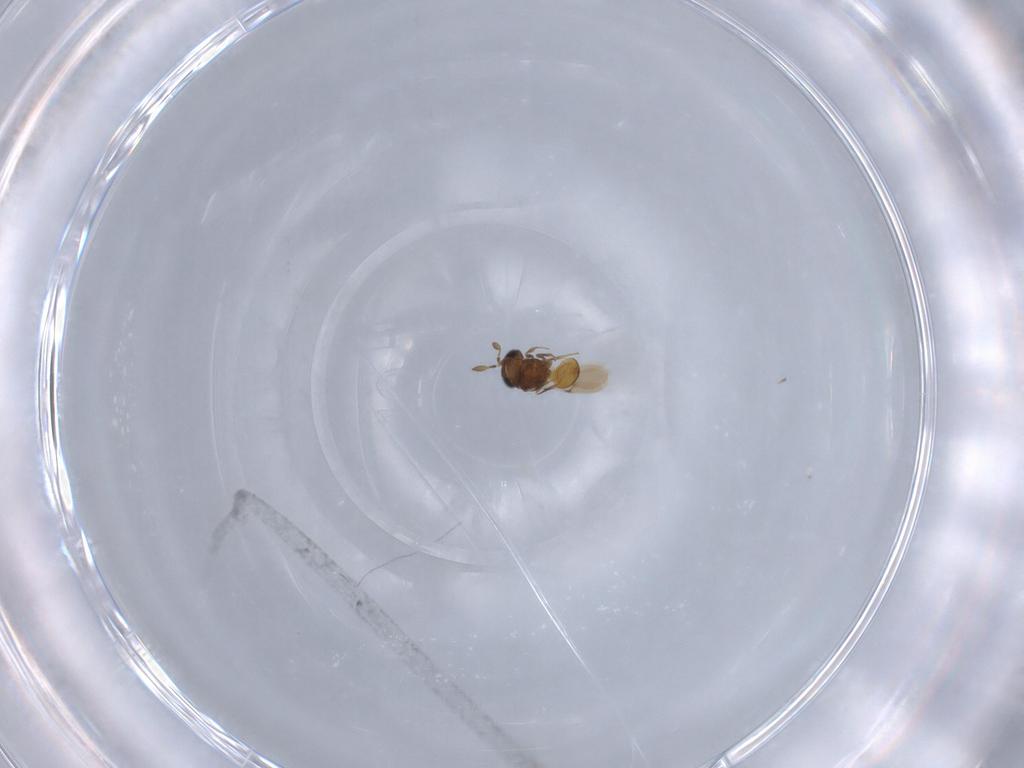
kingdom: Animalia
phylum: Arthropoda
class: Insecta
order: Hymenoptera
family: Scelionidae
